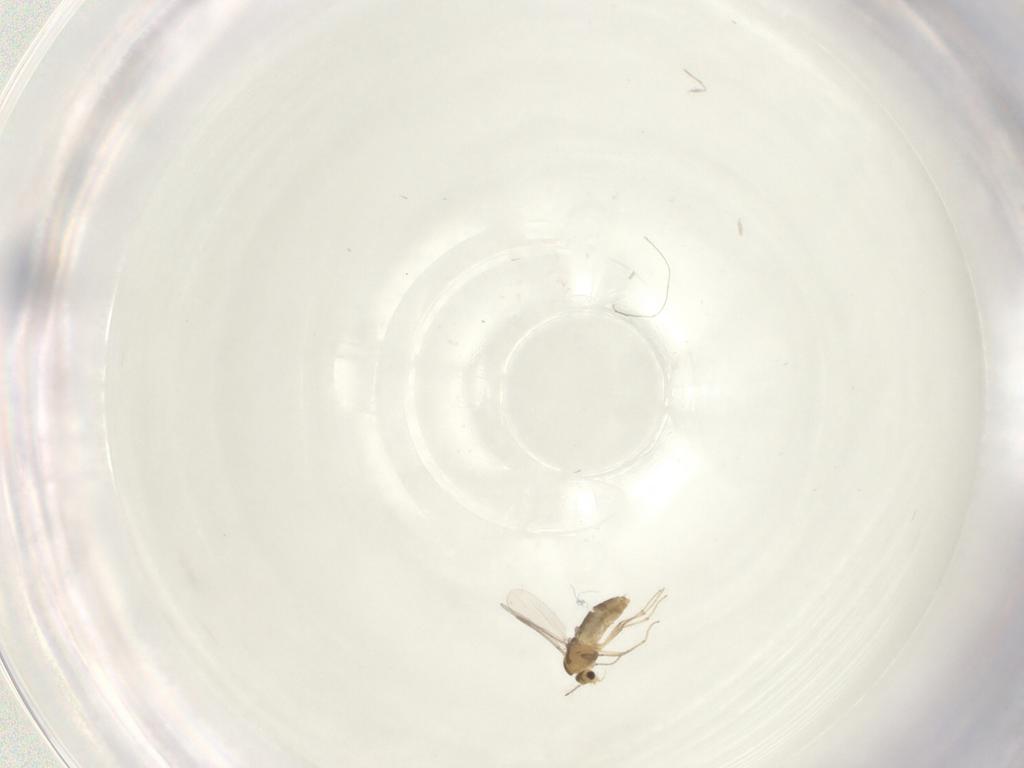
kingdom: Animalia
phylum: Arthropoda
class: Insecta
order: Diptera
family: Chironomidae
